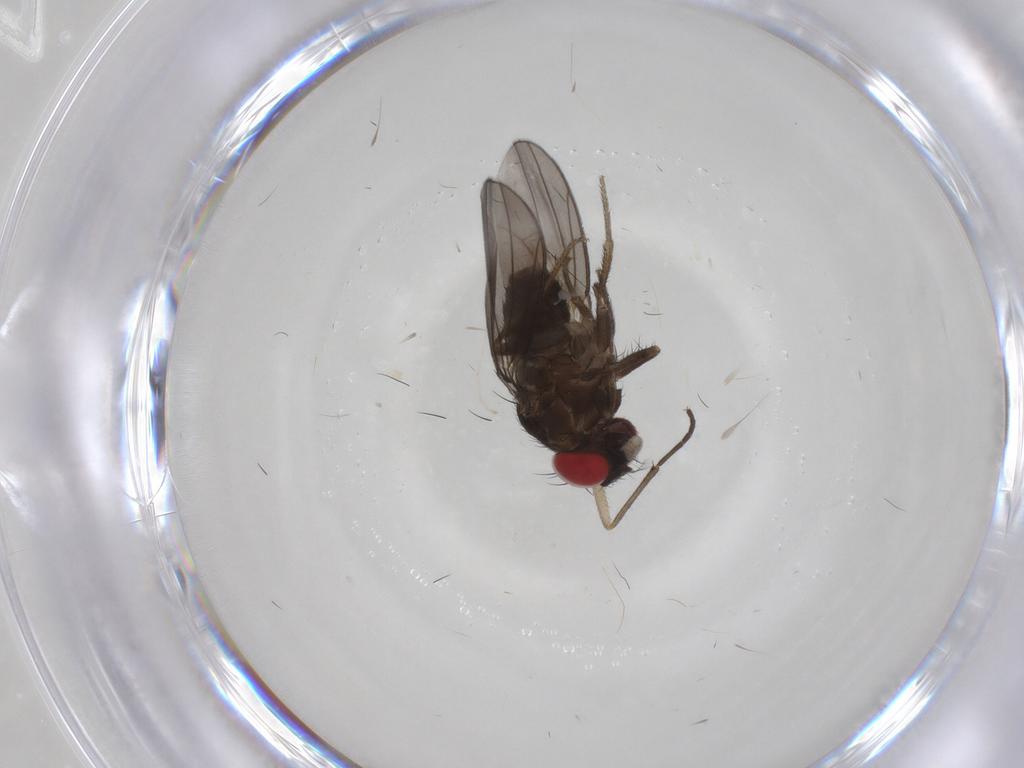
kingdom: Animalia
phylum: Arthropoda
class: Insecta
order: Diptera
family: Drosophilidae
